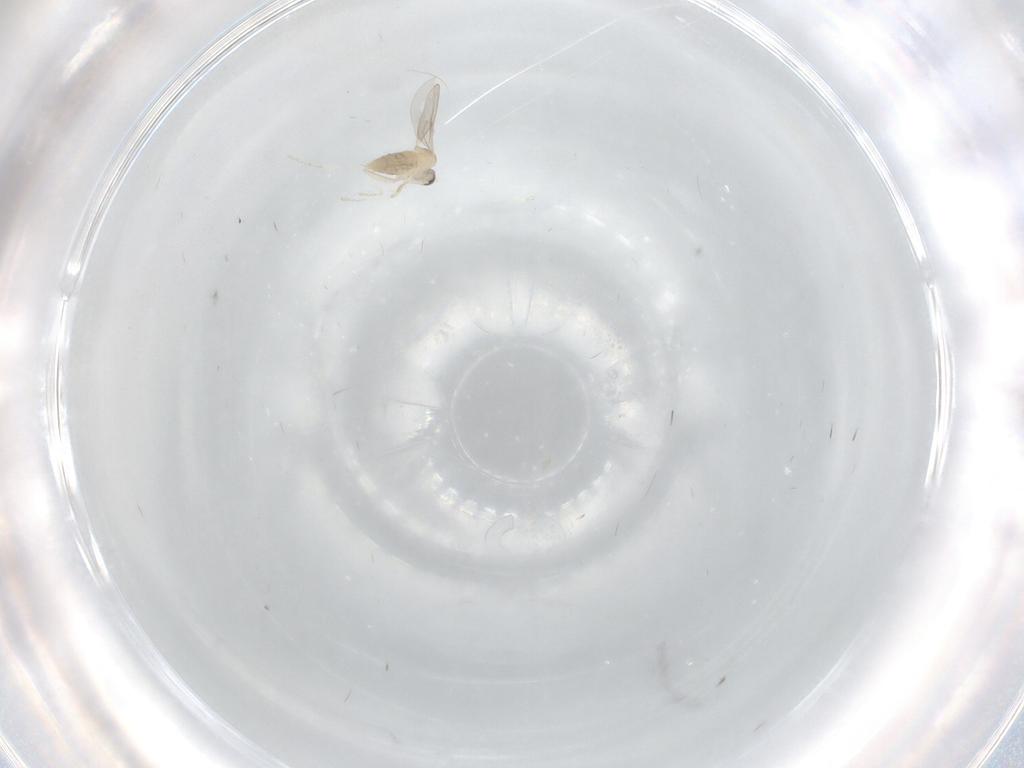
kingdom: Animalia
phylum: Arthropoda
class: Insecta
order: Diptera
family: Cecidomyiidae
